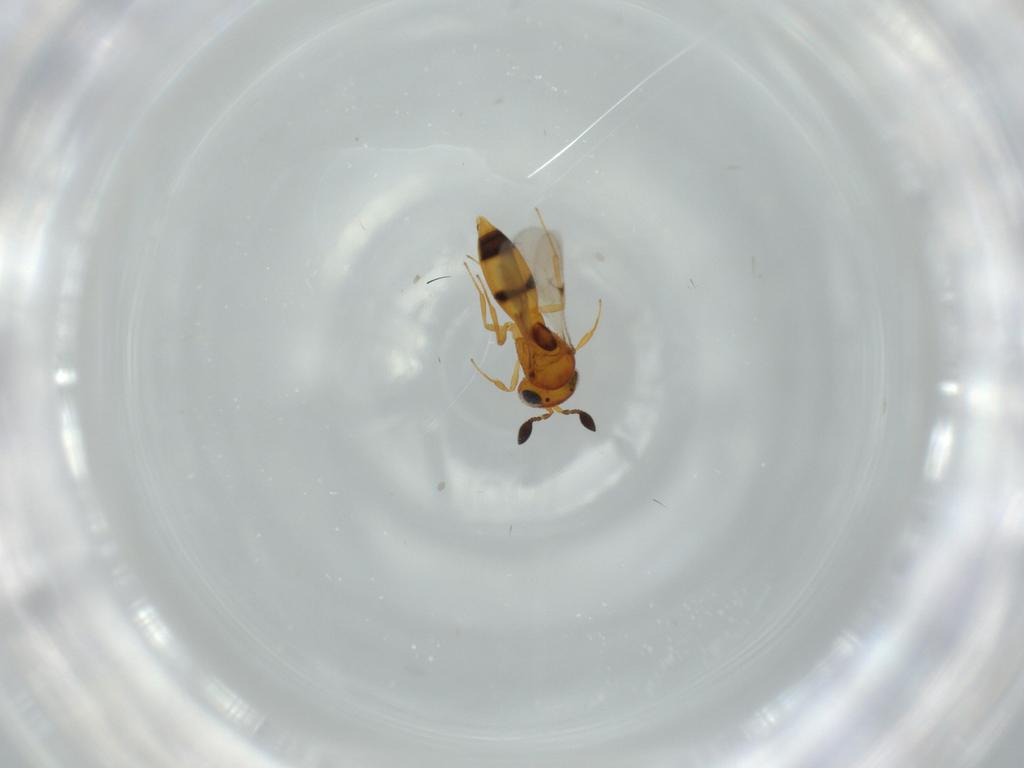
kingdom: Animalia
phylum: Arthropoda
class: Insecta
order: Hymenoptera
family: Scelionidae
